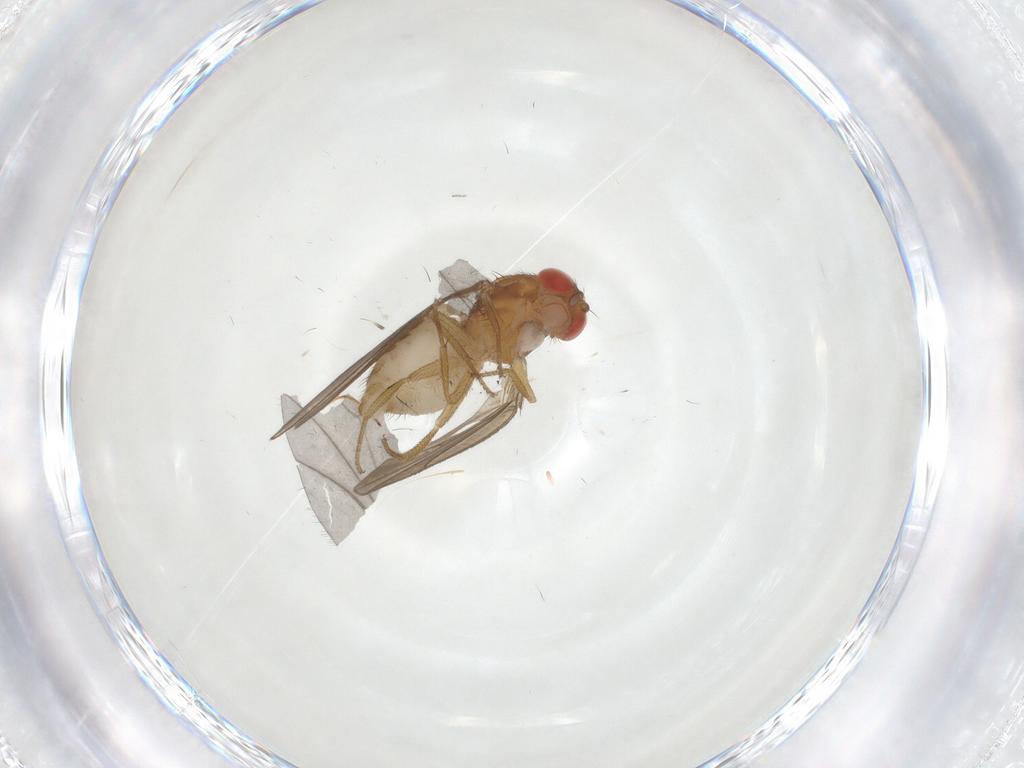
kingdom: Animalia
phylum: Arthropoda
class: Insecta
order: Diptera
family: Drosophilidae
